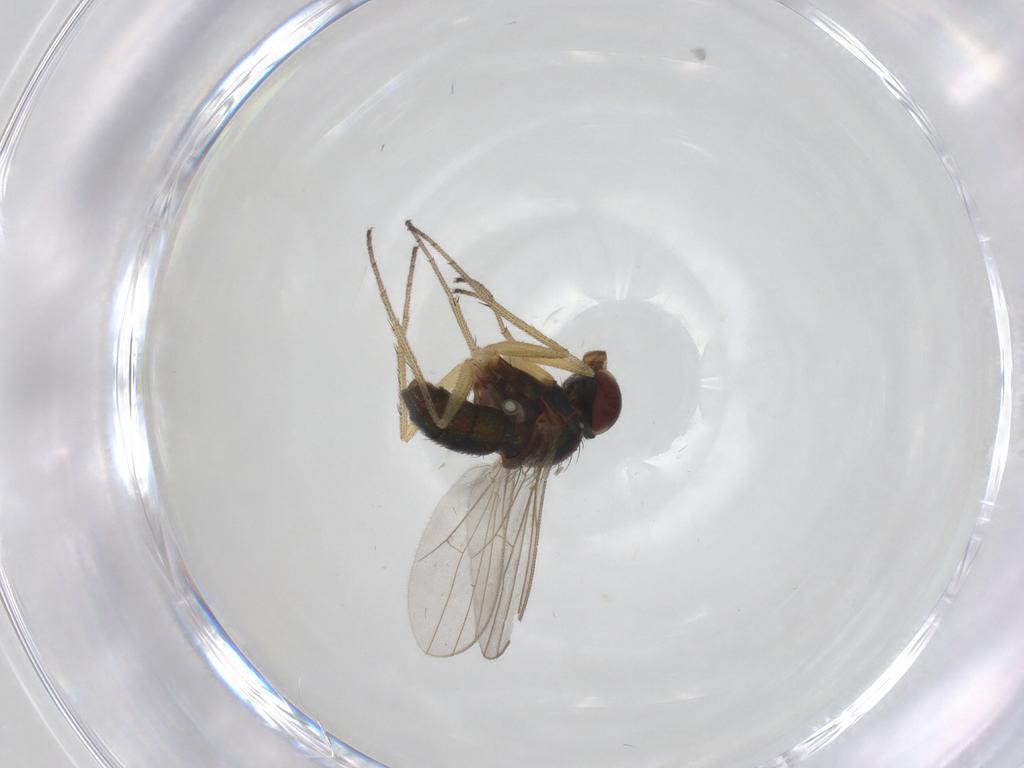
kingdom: Animalia
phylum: Arthropoda
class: Insecta
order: Diptera
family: Dolichopodidae
